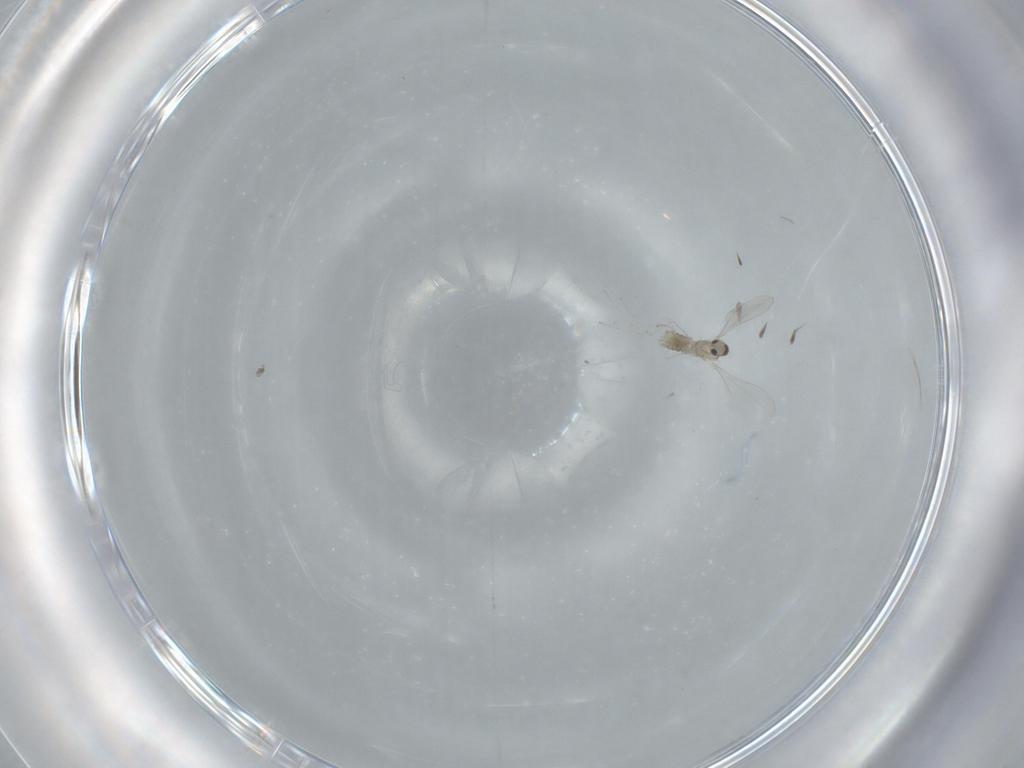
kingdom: Animalia
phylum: Arthropoda
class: Insecta
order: Diptera
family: Cecidomyiidae
